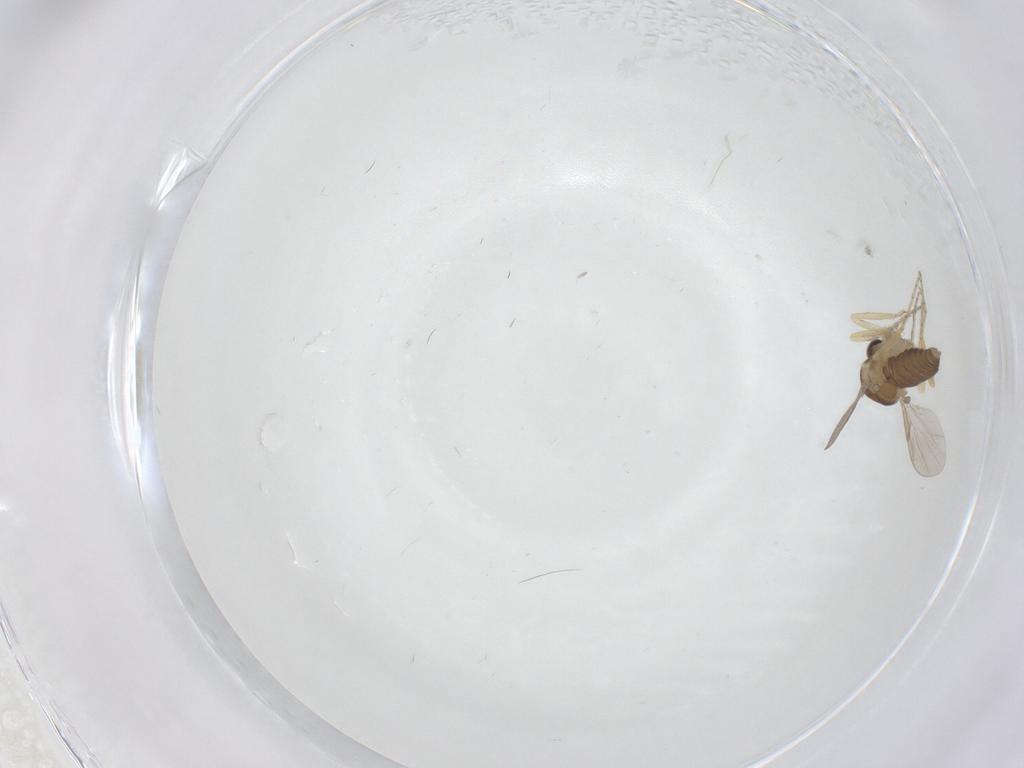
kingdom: Animalia
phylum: Arthropoda
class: Insecta
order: Diptera
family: Ceratopogonidae
